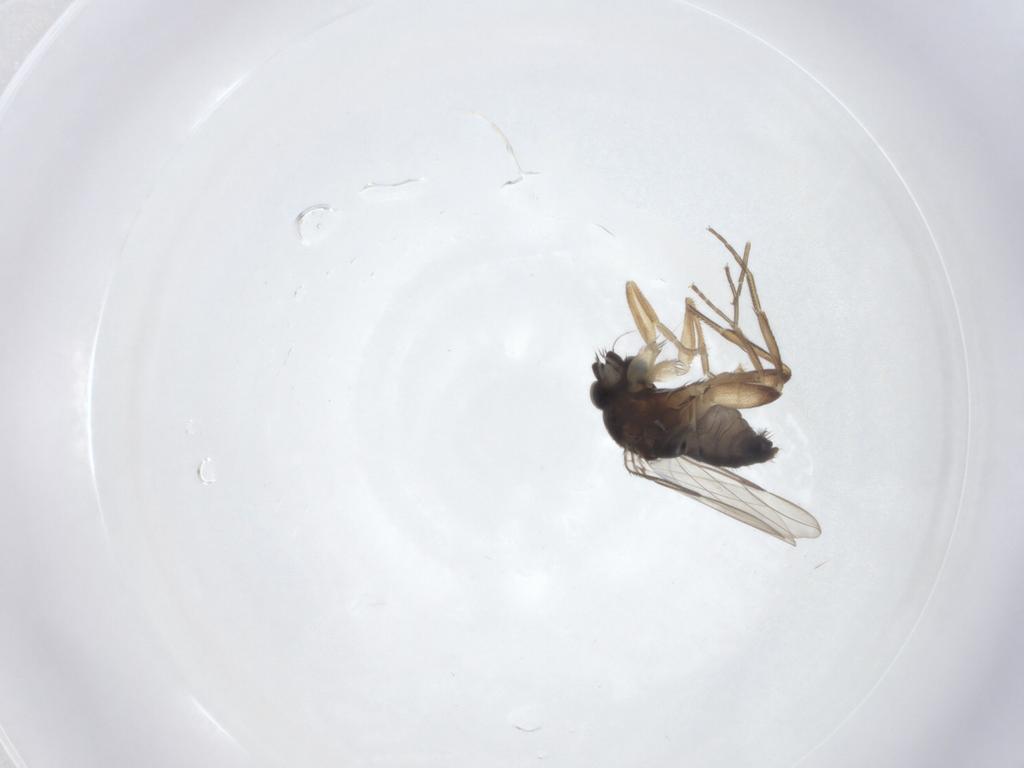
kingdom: Animalia
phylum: Arthropoda
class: Insecta
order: Diptera
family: Phoridae
